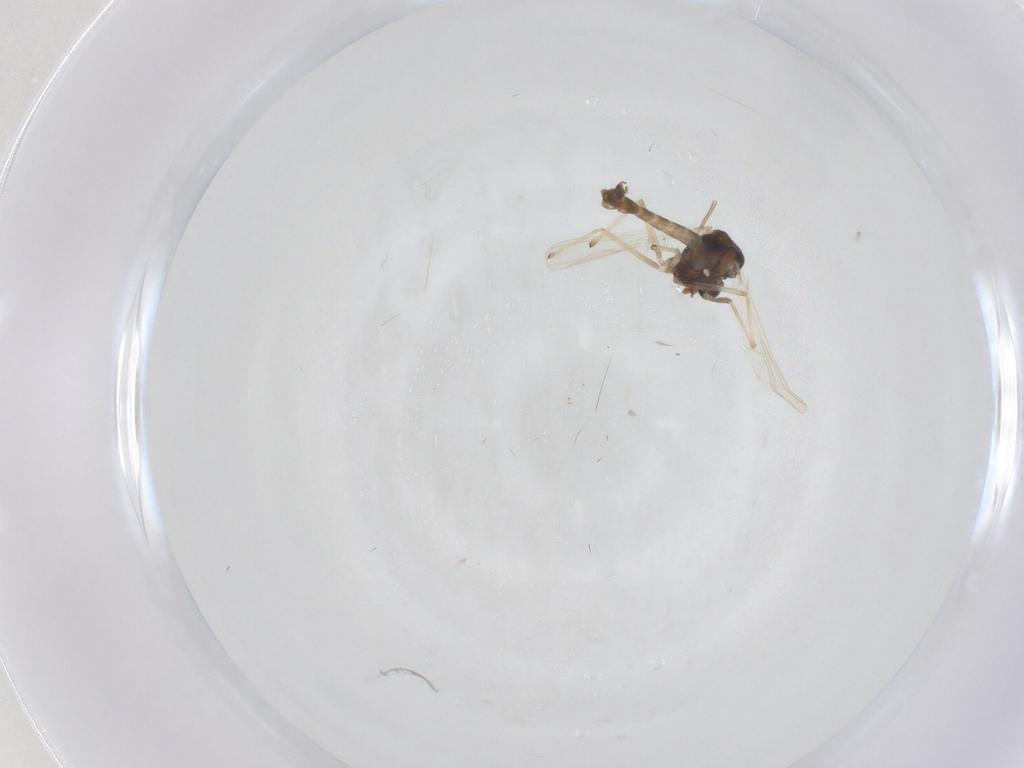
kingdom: Animalia
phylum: Arthropoda
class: Insecta
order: Diptera
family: Chironomidae
